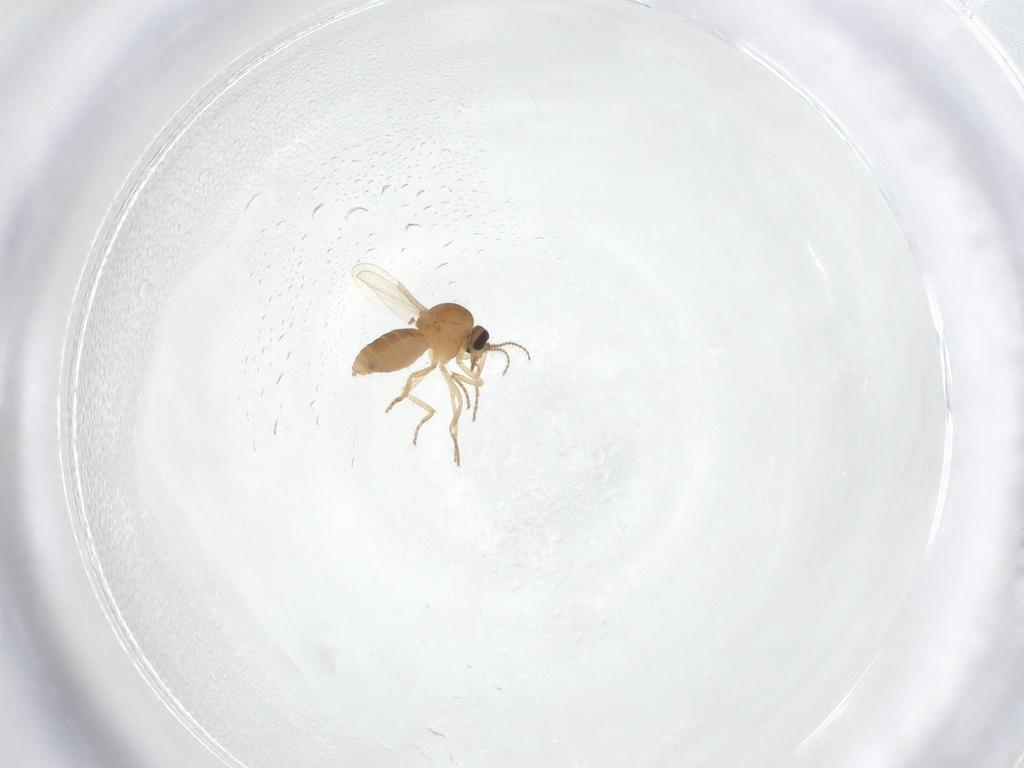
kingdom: Animalia
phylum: Arthropoda
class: Insecta
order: Diptera
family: Ceratopogonidae
